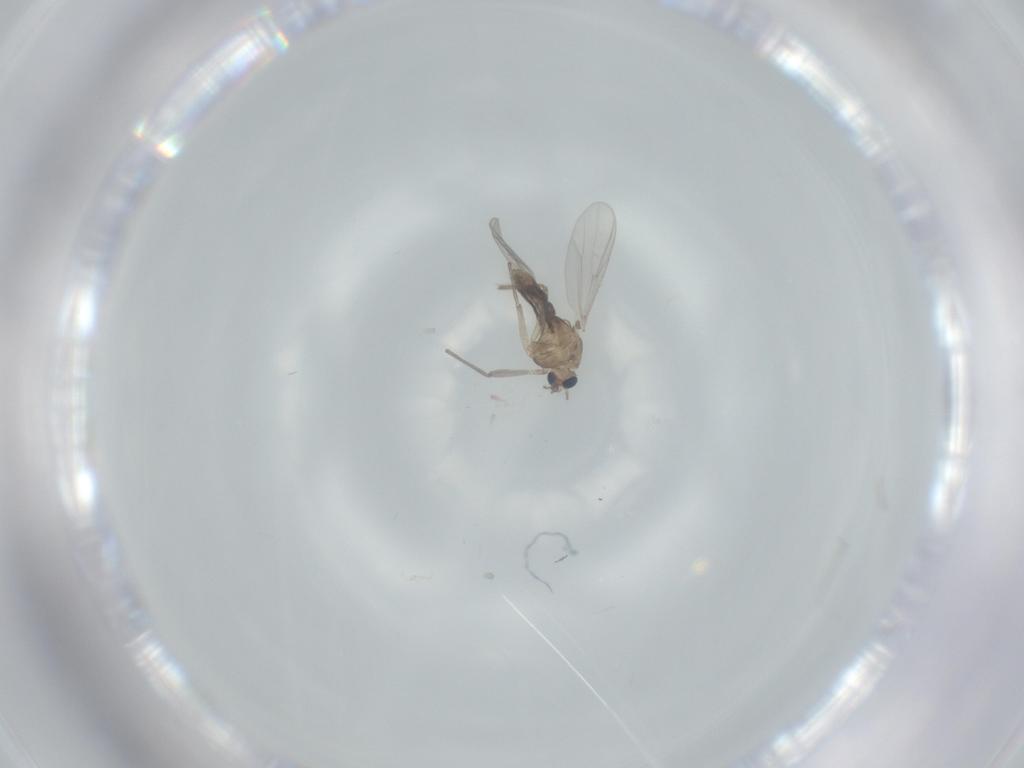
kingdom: Animalia
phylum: Arthropoda
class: Insecta
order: Diptera
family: Chironomidae
